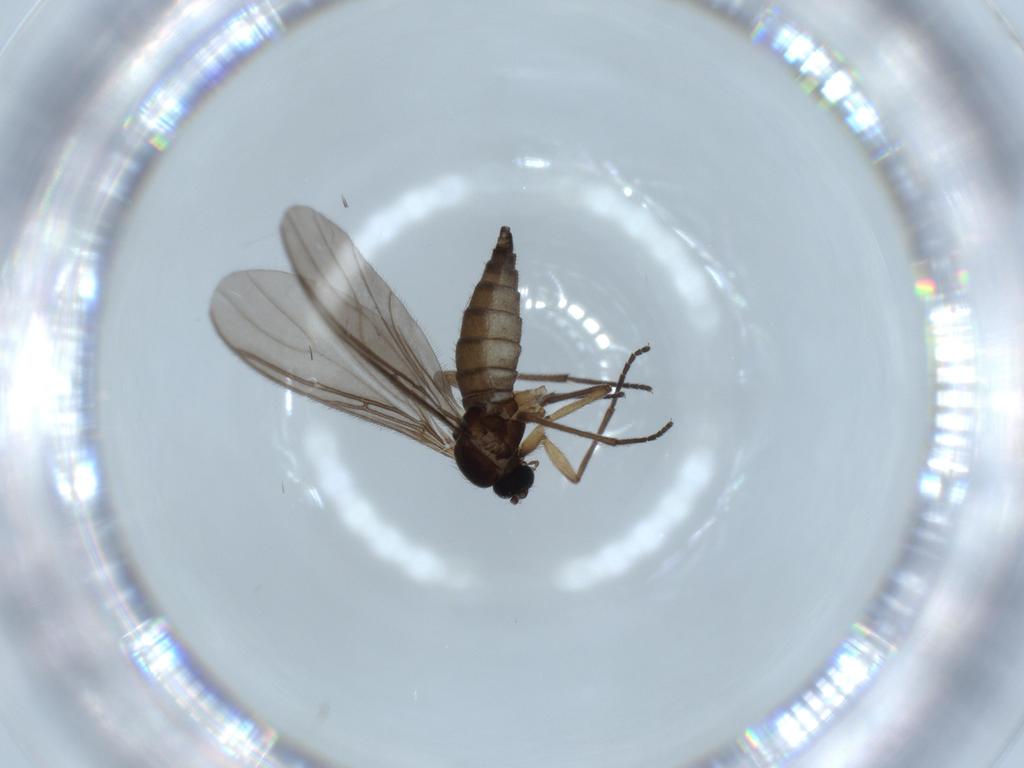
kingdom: Animalia
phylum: Arthropoda
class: Insecta
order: Diptera
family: Sciaridae
